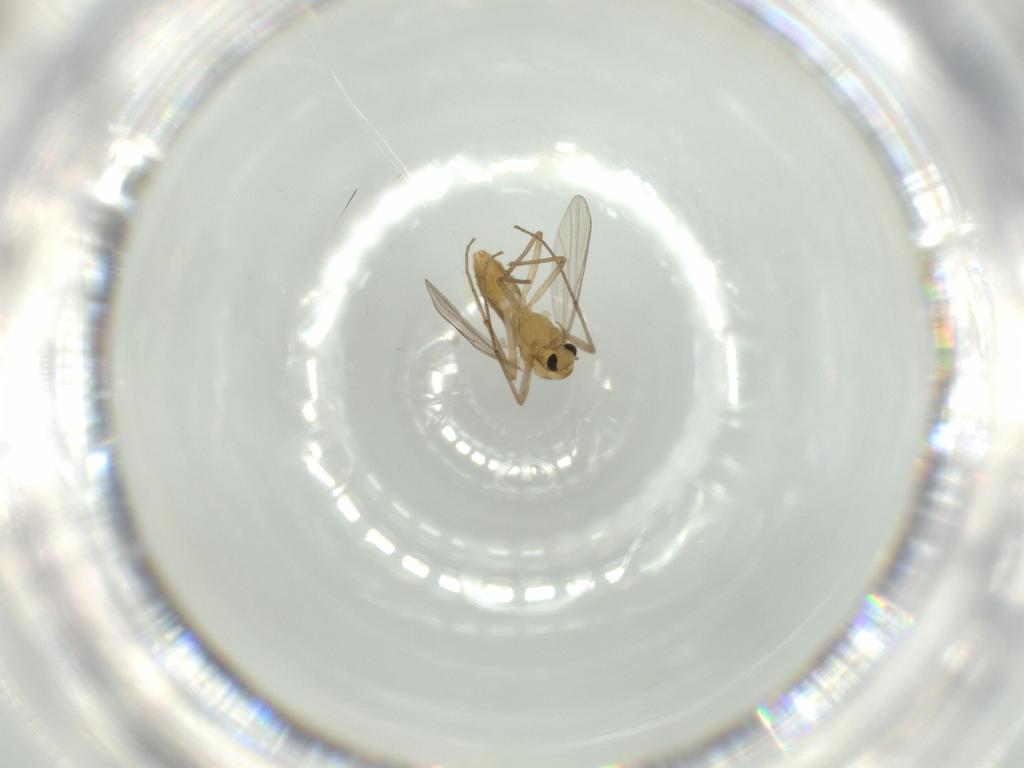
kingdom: Animalia
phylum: Arthropoda
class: Insecta
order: Diptera
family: Chironomidae
